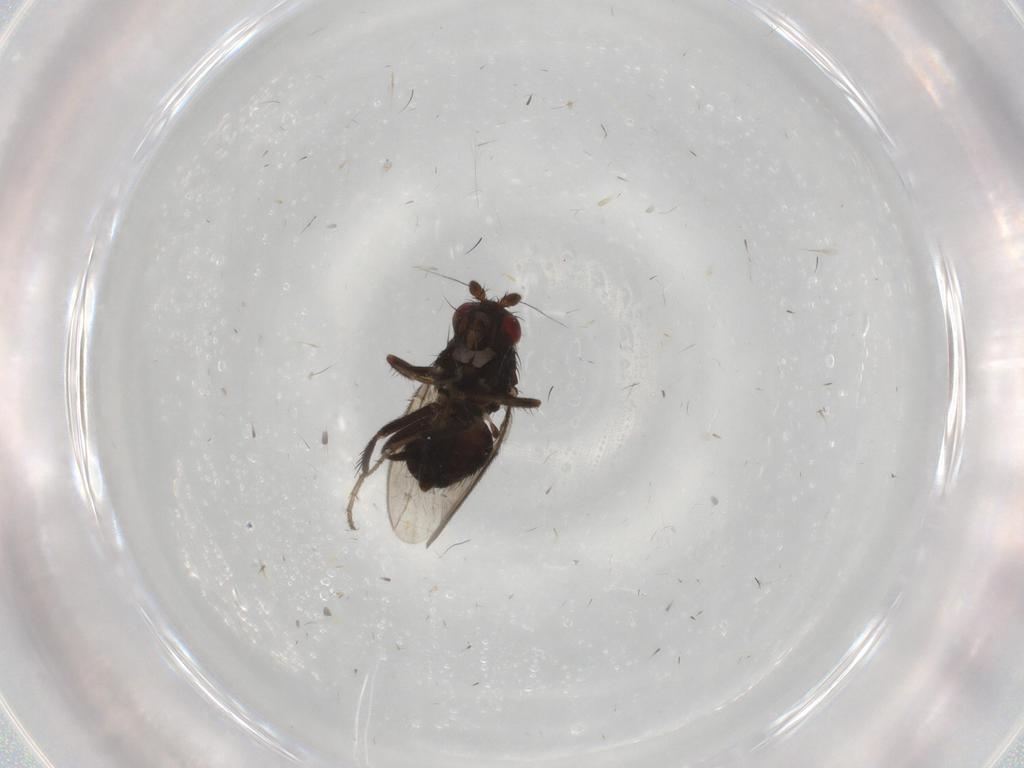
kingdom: Animalia
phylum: Arthropoda
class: Insecta
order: Diptera
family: Sphaeroceridae
